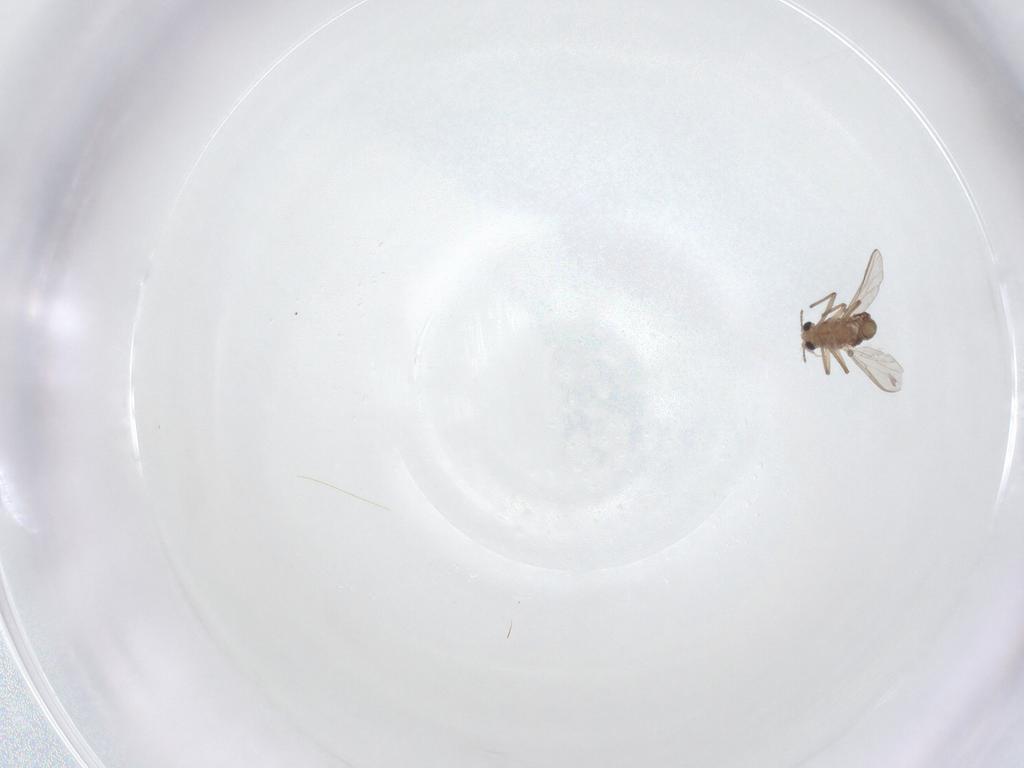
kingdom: Animalia
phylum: Arthropoda
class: Insecta
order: Diptera
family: Chironomidae
